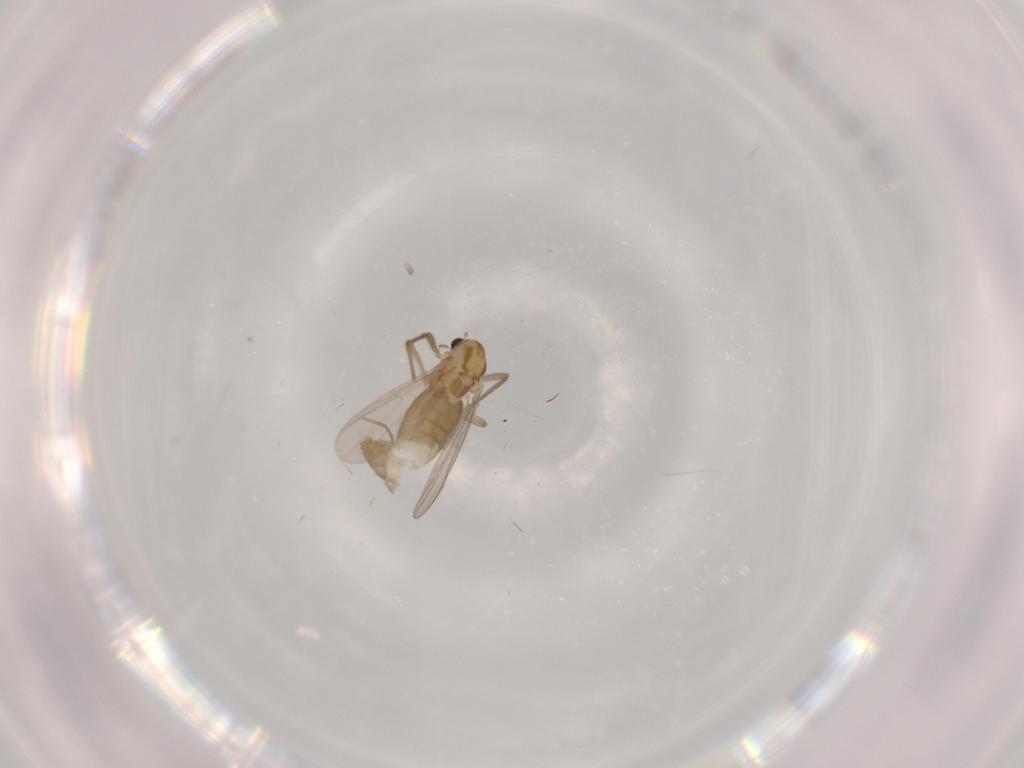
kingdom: Animalia
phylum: Arthropoda
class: Insecta
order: Diptera
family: Chironomidae
